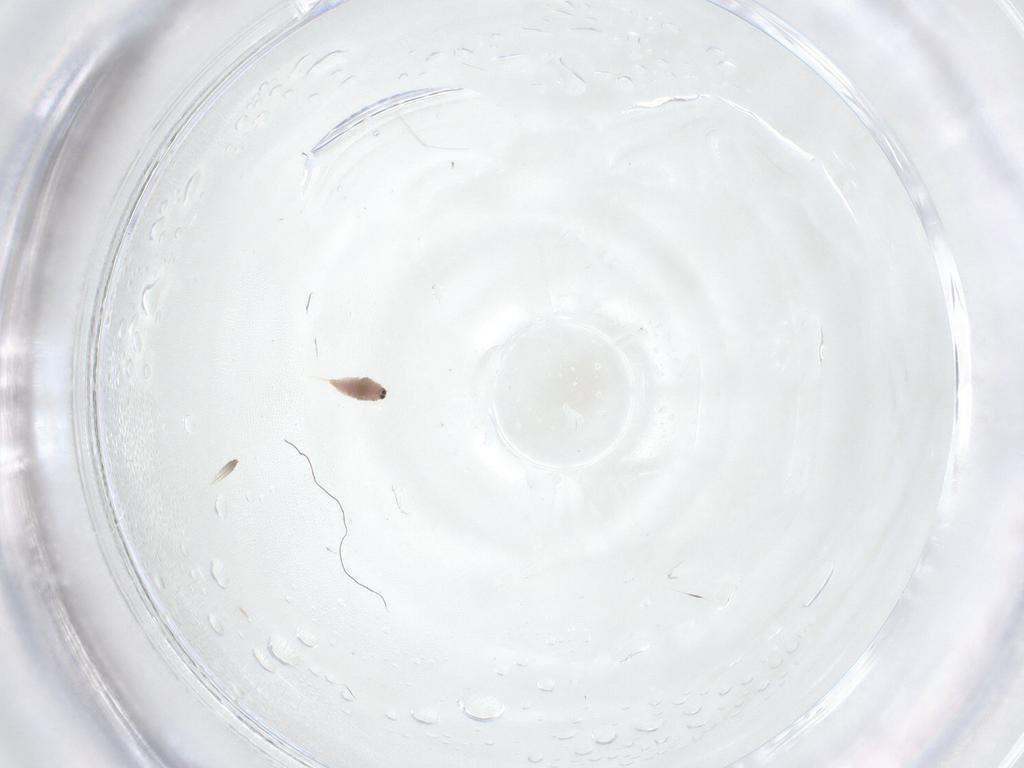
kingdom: Animalia
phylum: Arthropoda
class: Insecta
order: Hemiptera
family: Diaspididae
